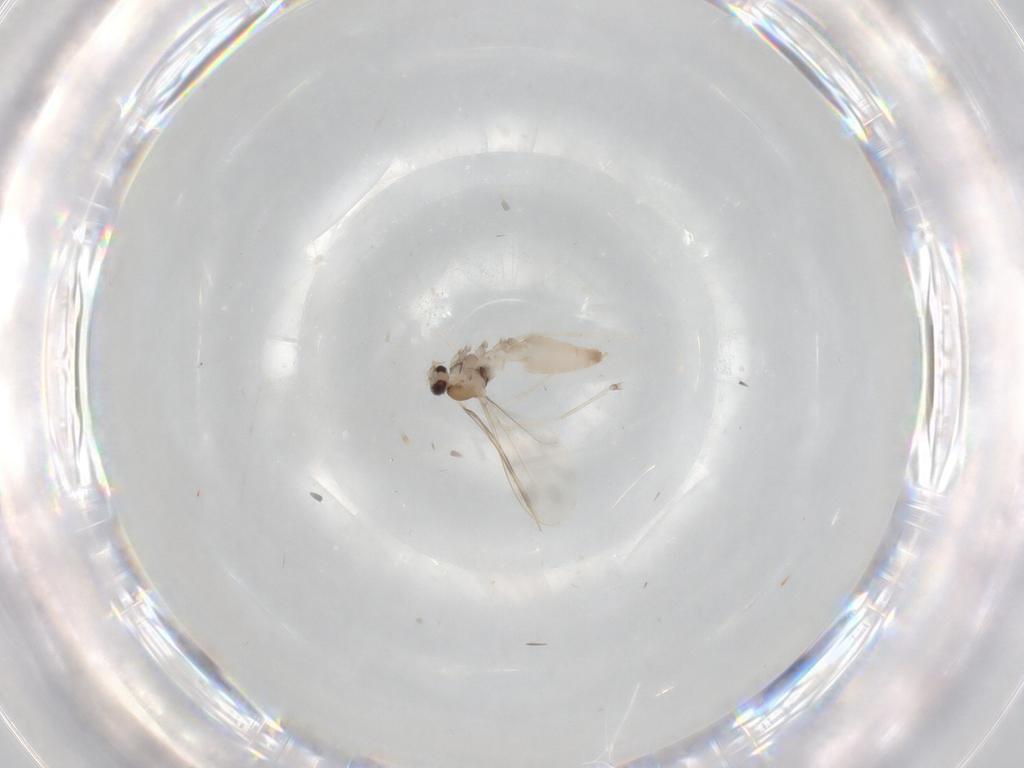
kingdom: Animalia
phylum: Arthropoda
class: Insecta
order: Diptera
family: Cecidomyiidae
